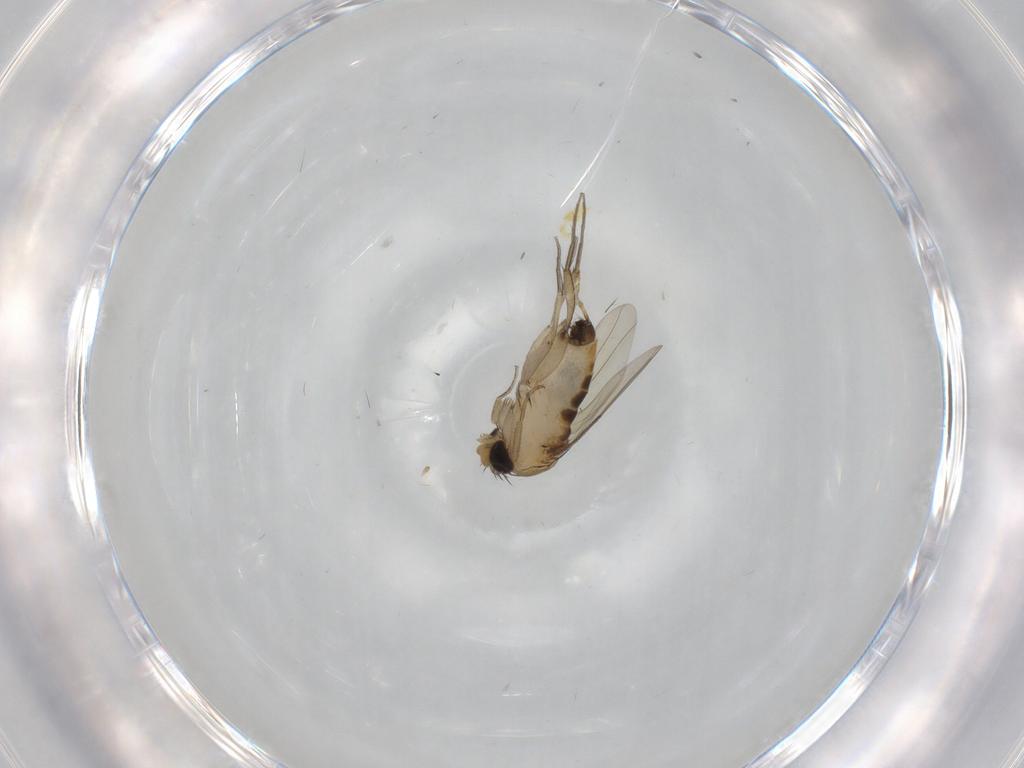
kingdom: Animalia
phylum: Arthropoda
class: Insecta
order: Diptera
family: Phoridae
